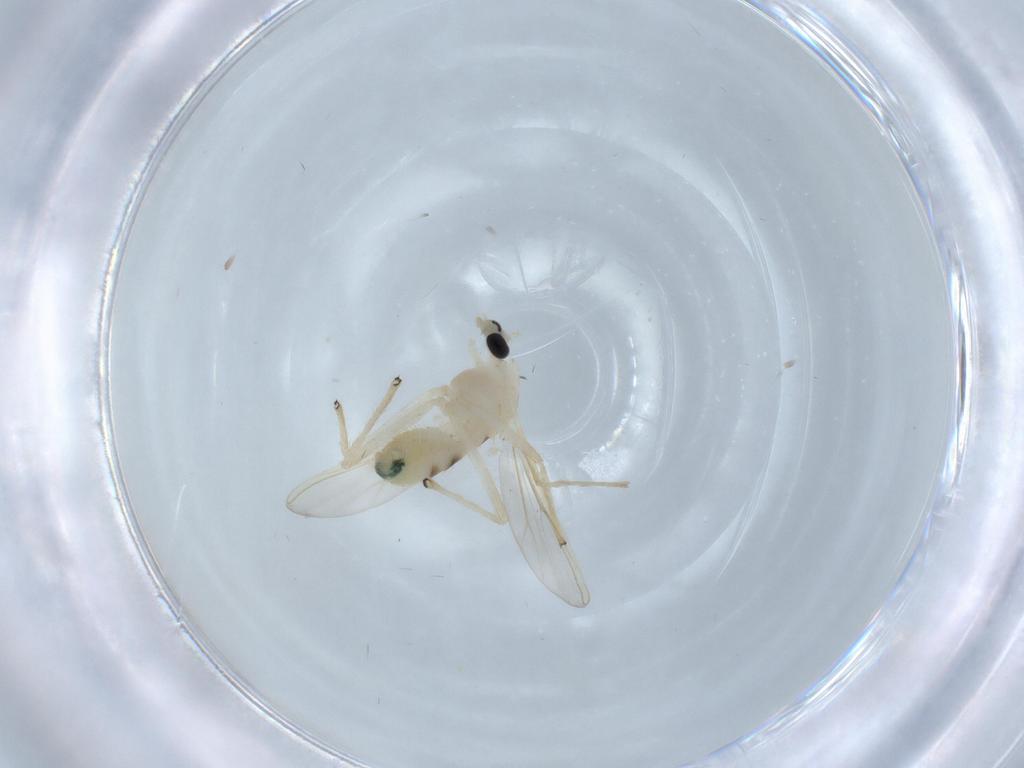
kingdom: Animalia
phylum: Arthropoda
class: Insecta
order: Diptera
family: Chironomidae
